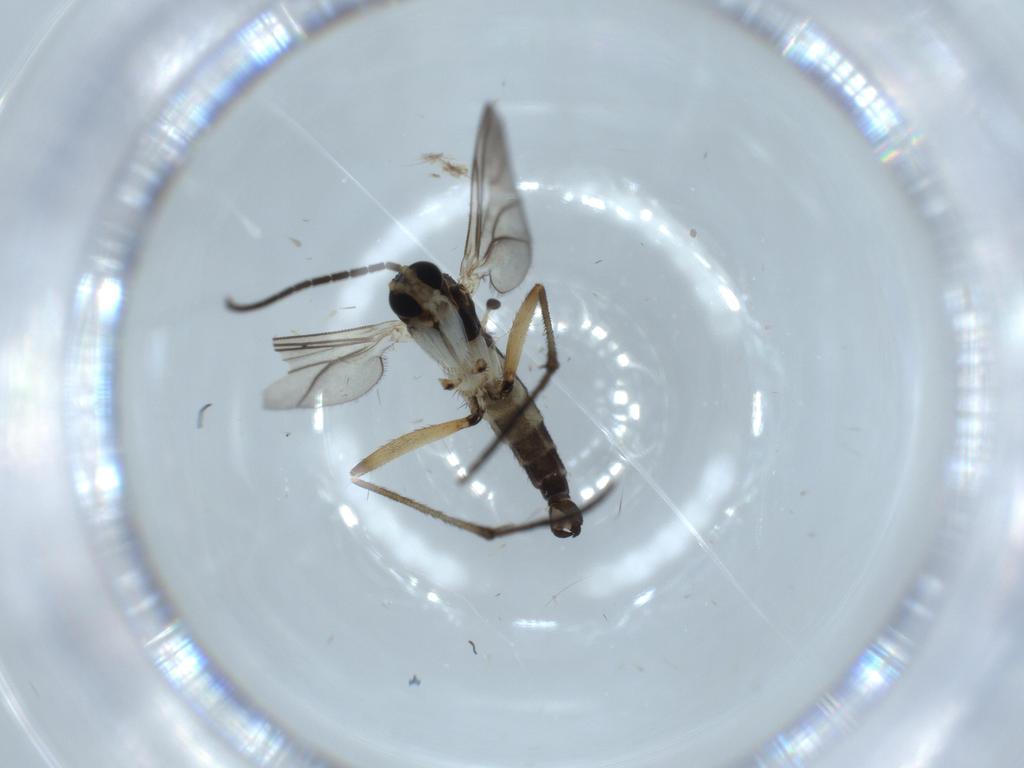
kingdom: Animalia
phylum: Arthropoda
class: Insecta
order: Diptera
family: Sciaridae
